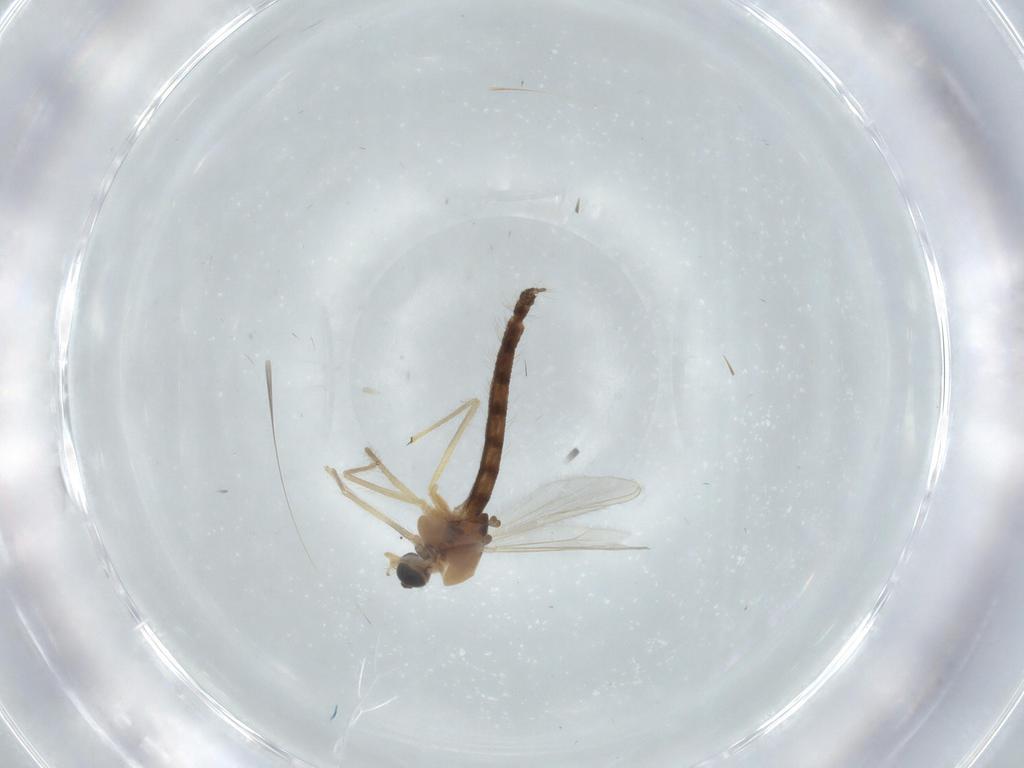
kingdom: Animalia
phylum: Arthropoda
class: Insecta
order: Diptera
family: Chironomidae
